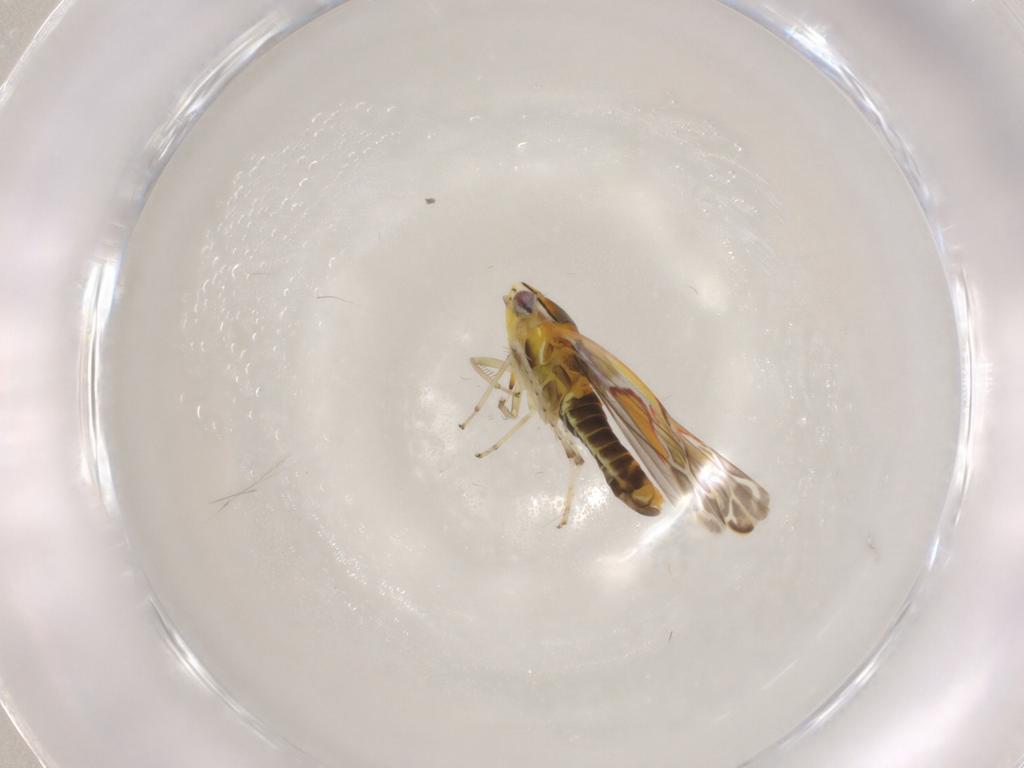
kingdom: Animalia
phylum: Arthropoda
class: Insecta
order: Hemiptera
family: Cicadellidae
